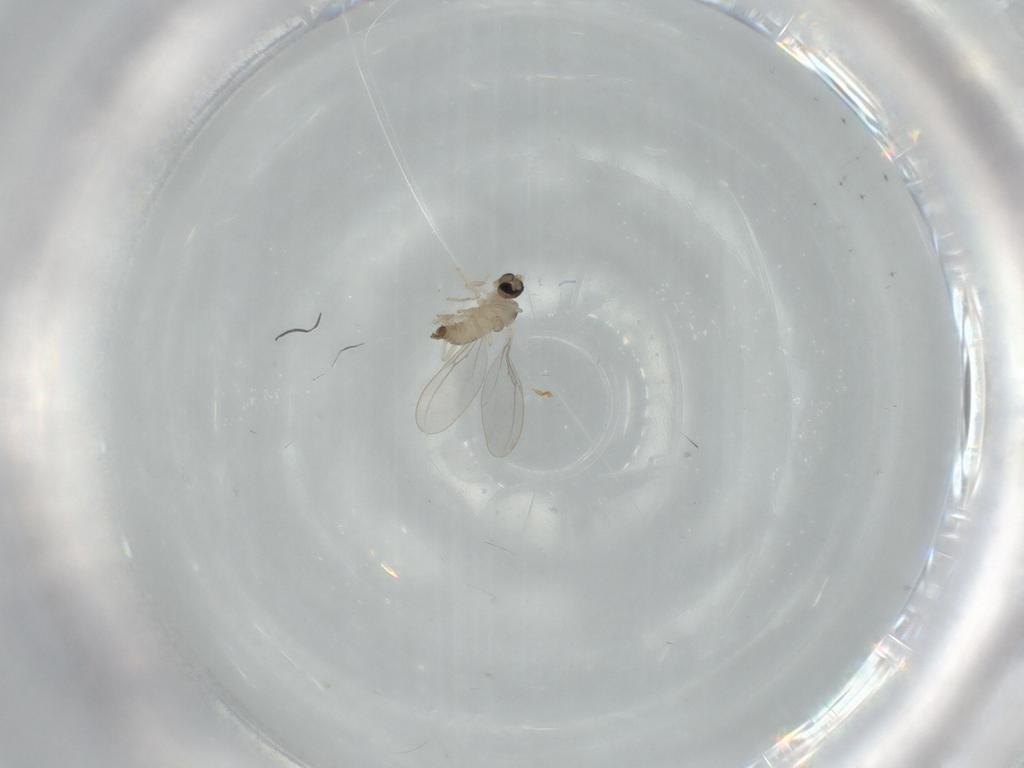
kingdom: Animalia
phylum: Arthropoda
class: Insecta
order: Diptera
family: Cecidomyiidae
